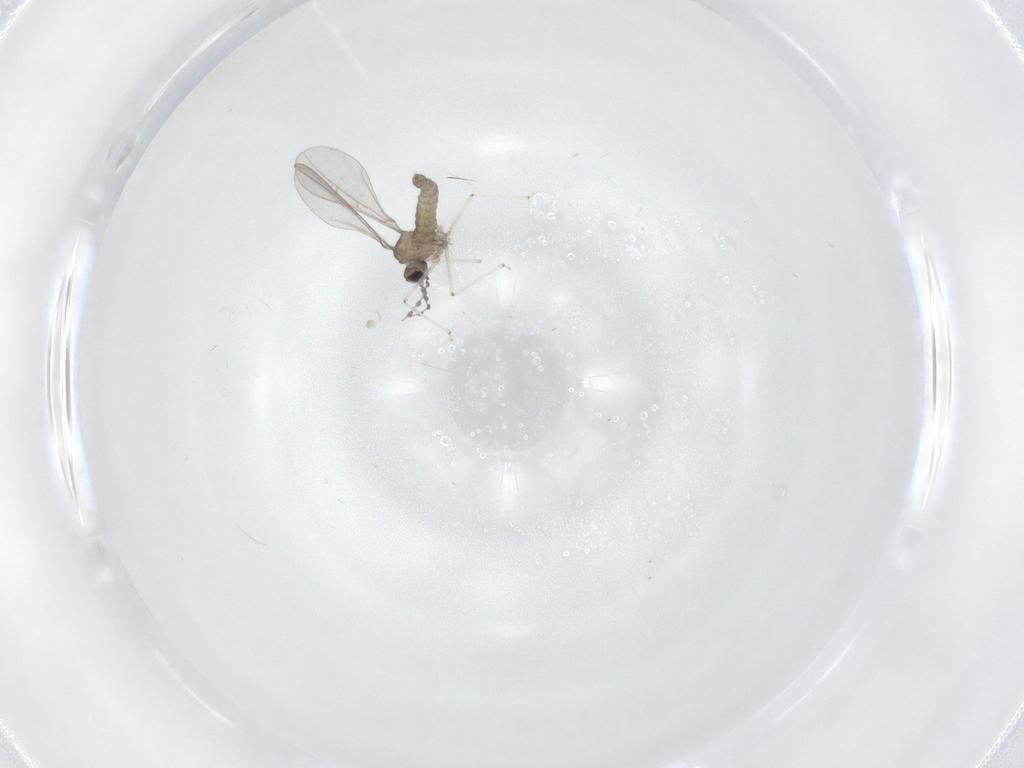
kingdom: Animalia
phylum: Arthropoda
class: Insecta
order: Diptera
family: Cecidomyiidae
